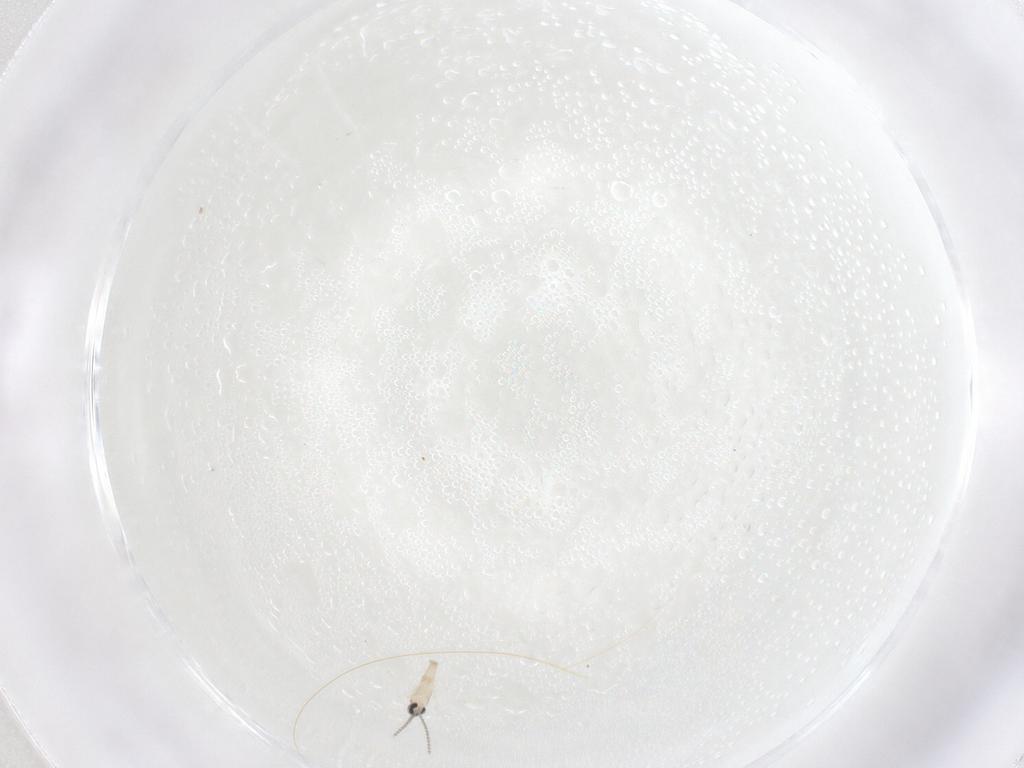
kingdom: Animalia
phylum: Arthropoda
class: Insecta
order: Diptera
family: Cecidomyiidae
